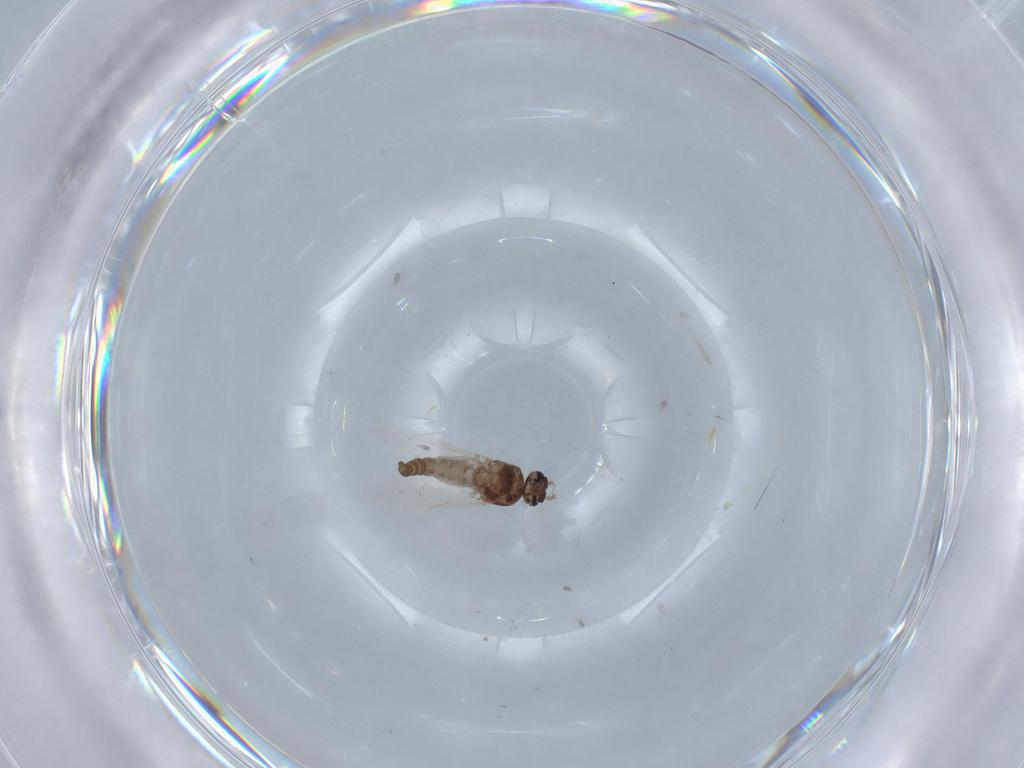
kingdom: Animalia
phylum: Arthropoda
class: Insecta
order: Diptera
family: Ceratopogonidae
